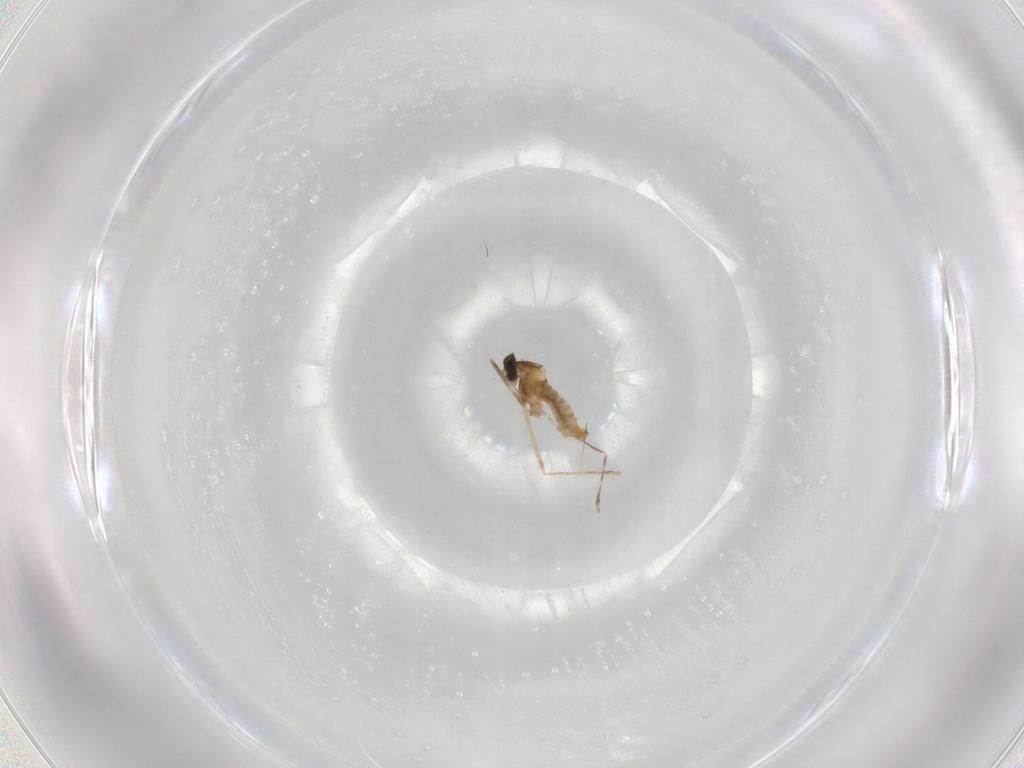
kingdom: Animalia
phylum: Arthropoda
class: Insecta
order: Diptera
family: Cecidomyiidae
